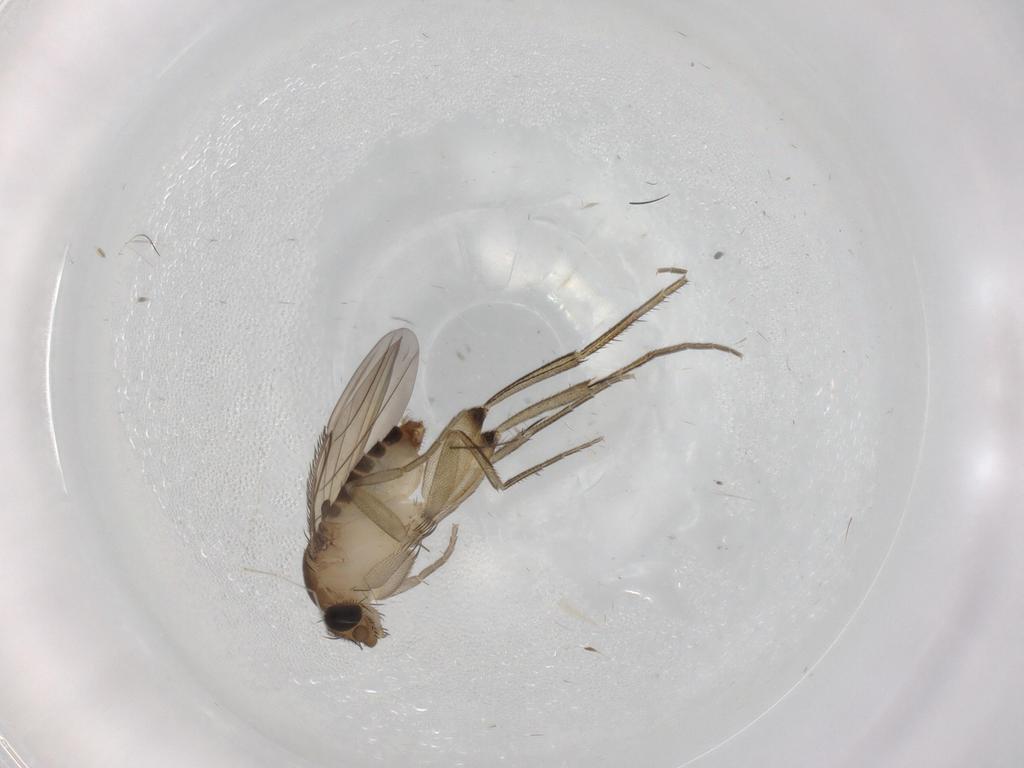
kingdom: Animalia
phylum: Arthropoda
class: Insecta
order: Diptera
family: Phoridae
